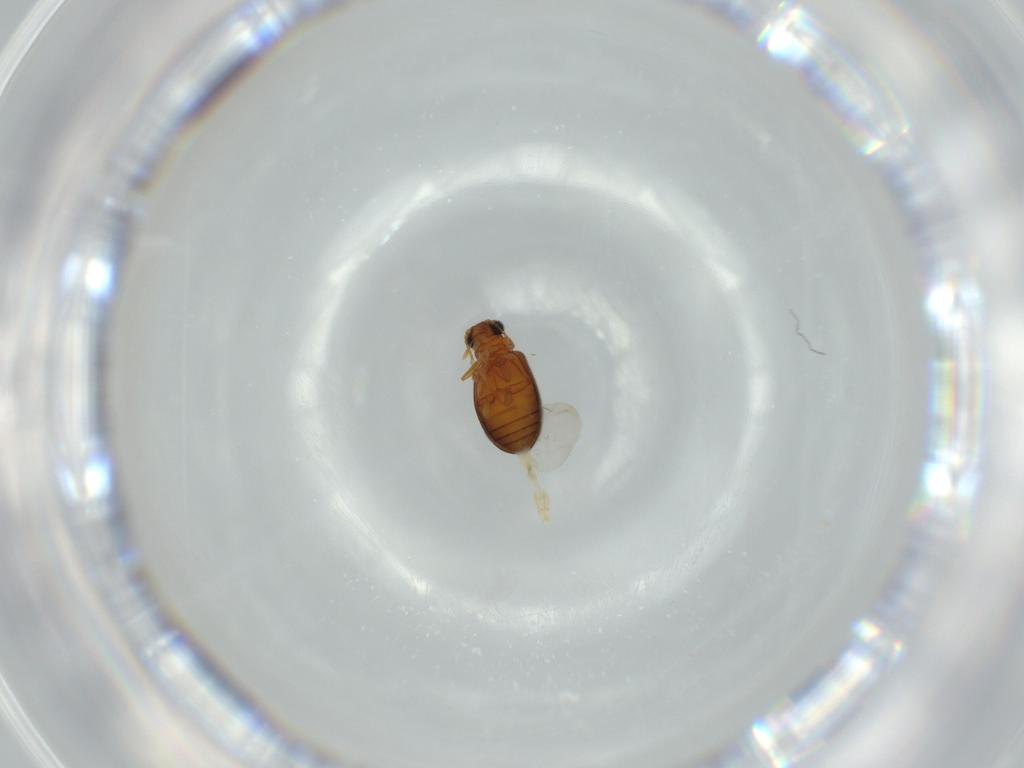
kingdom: Animalia
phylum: Arthropoda
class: Insecta
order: Coleoptera
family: Aderidae
